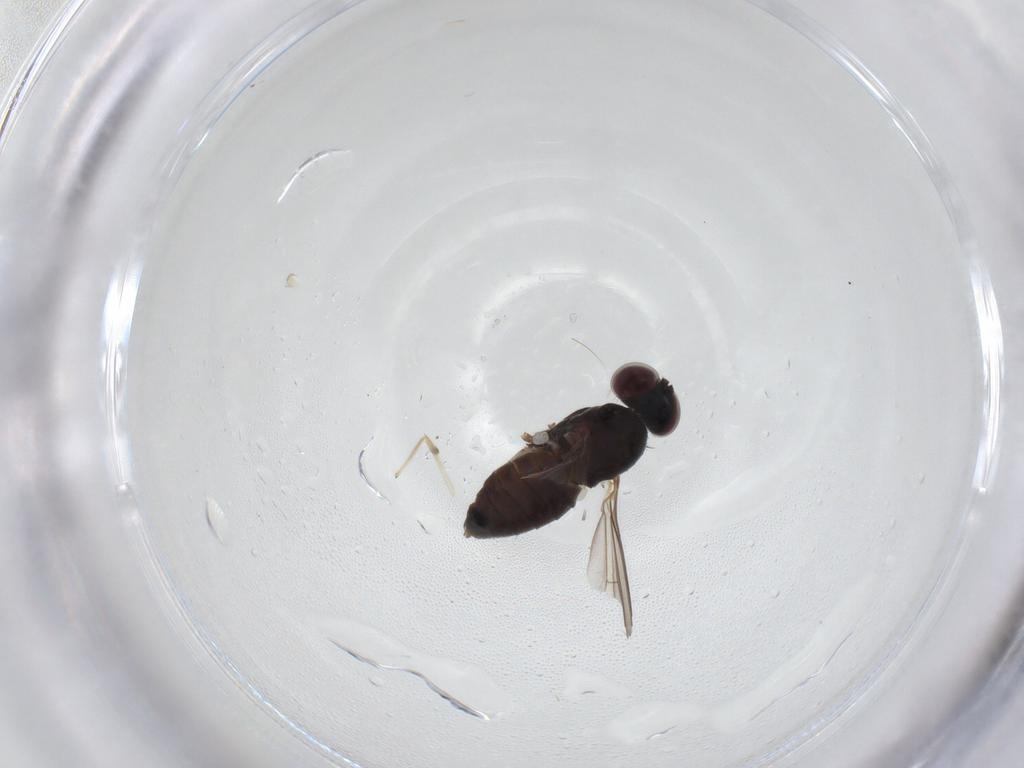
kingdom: Animalia
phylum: Arthropoda
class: Insecta
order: Diptera
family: Dolichopodidae
